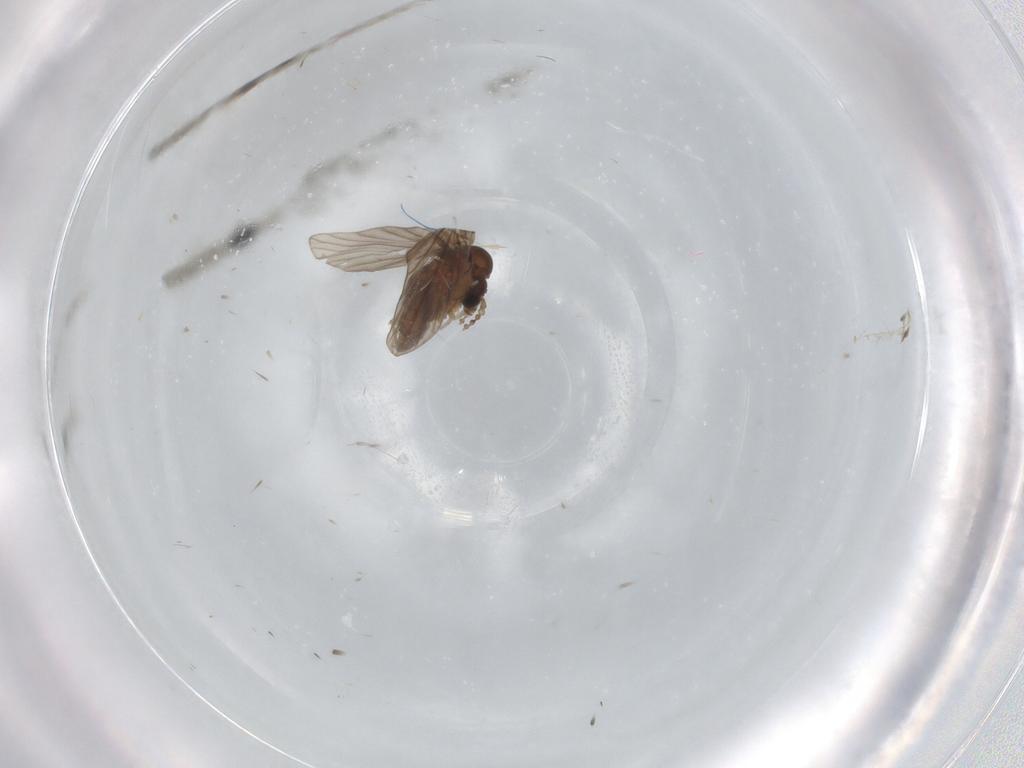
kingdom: Animalia
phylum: Arthropoda
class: Insecta
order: Diptera
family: Psychodidae
